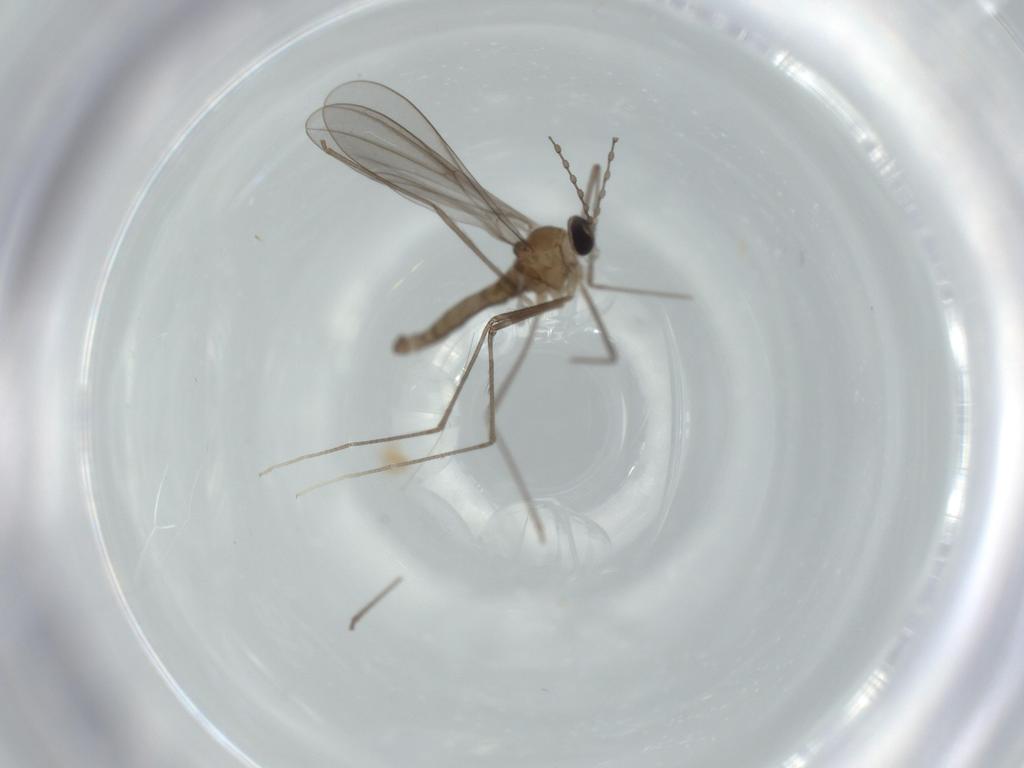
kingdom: Animalia
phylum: Arthropoda
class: Insecta
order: Diptera
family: Cecidomyiidae
